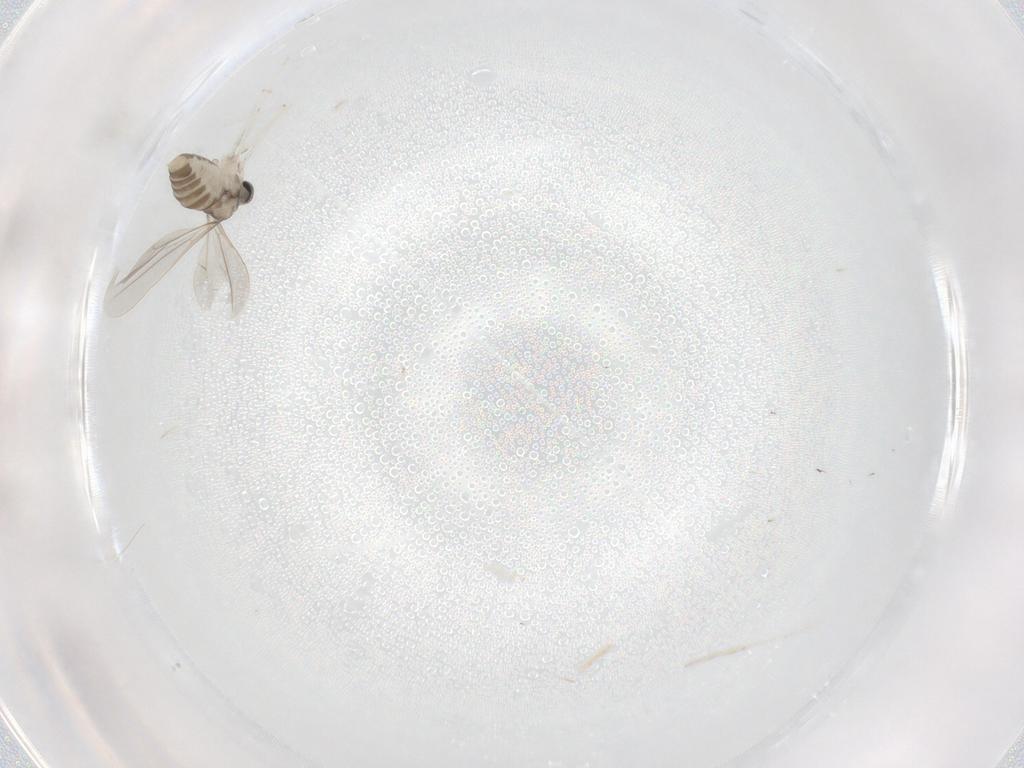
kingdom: Animalia
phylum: Arthropoda
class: Insecta
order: Diptera
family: Cecidomyiidae
